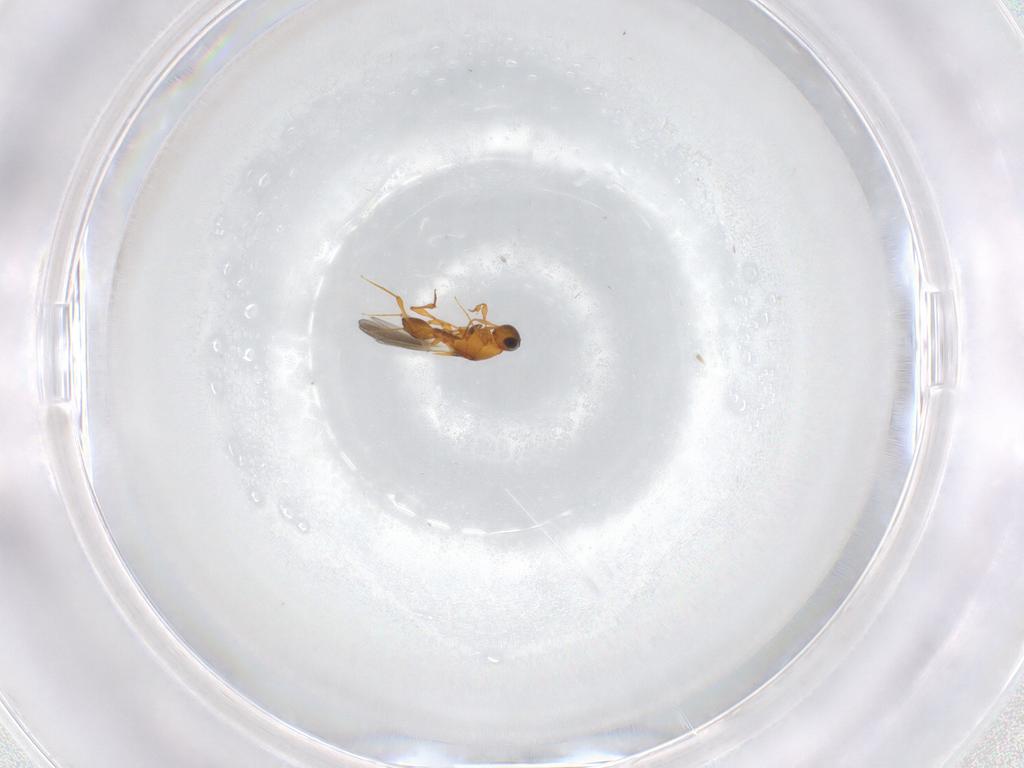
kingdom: Animalia
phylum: Arthropoda
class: Insecta
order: Hymenoptera
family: Platygastridae
